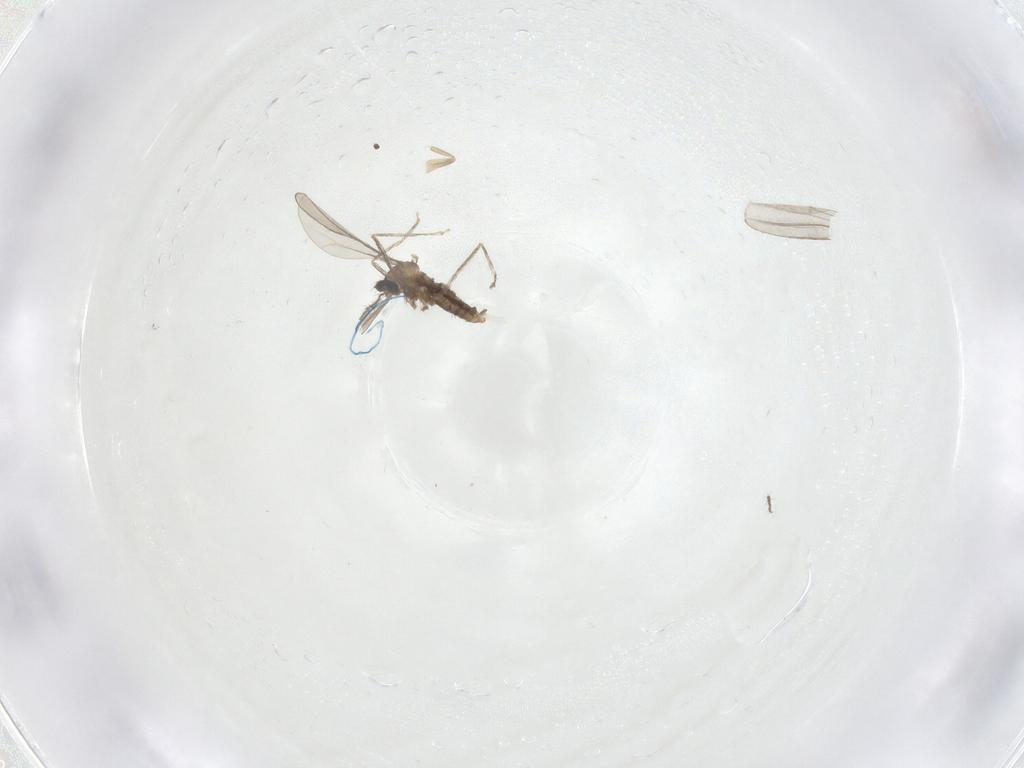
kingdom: Animalia
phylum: Arthropoda
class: Insecta
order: Diptera
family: Cecidomyiidae
